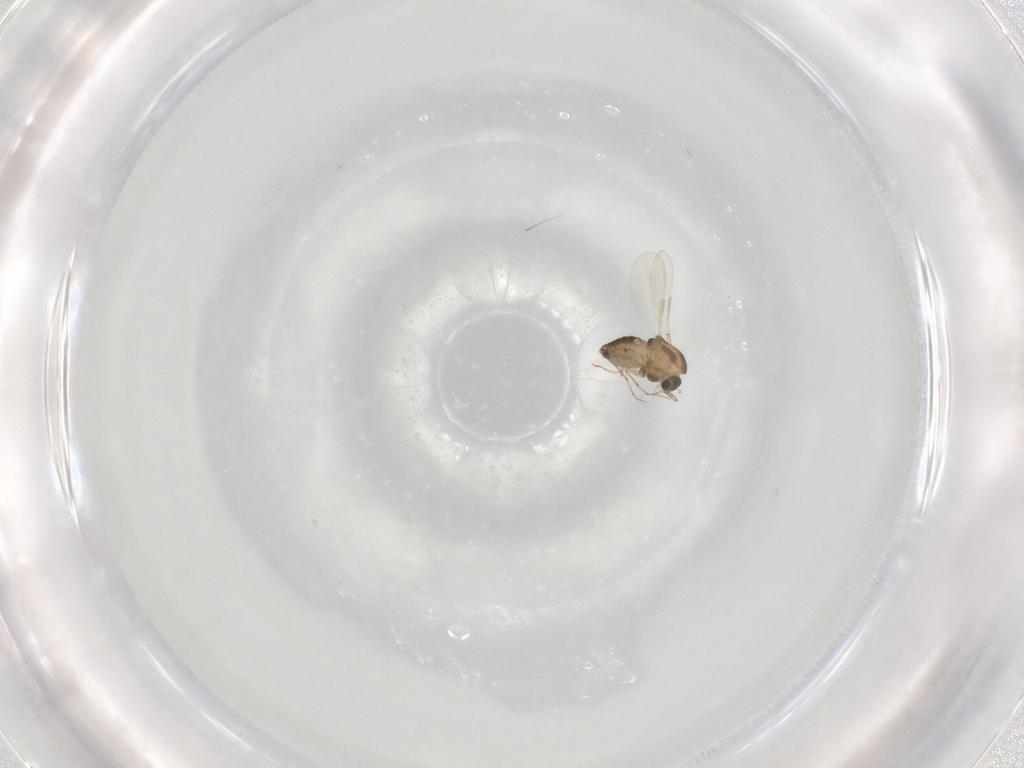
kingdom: Animalia
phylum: Arthropoda
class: Insecta
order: Diptera
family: Chironomidae
